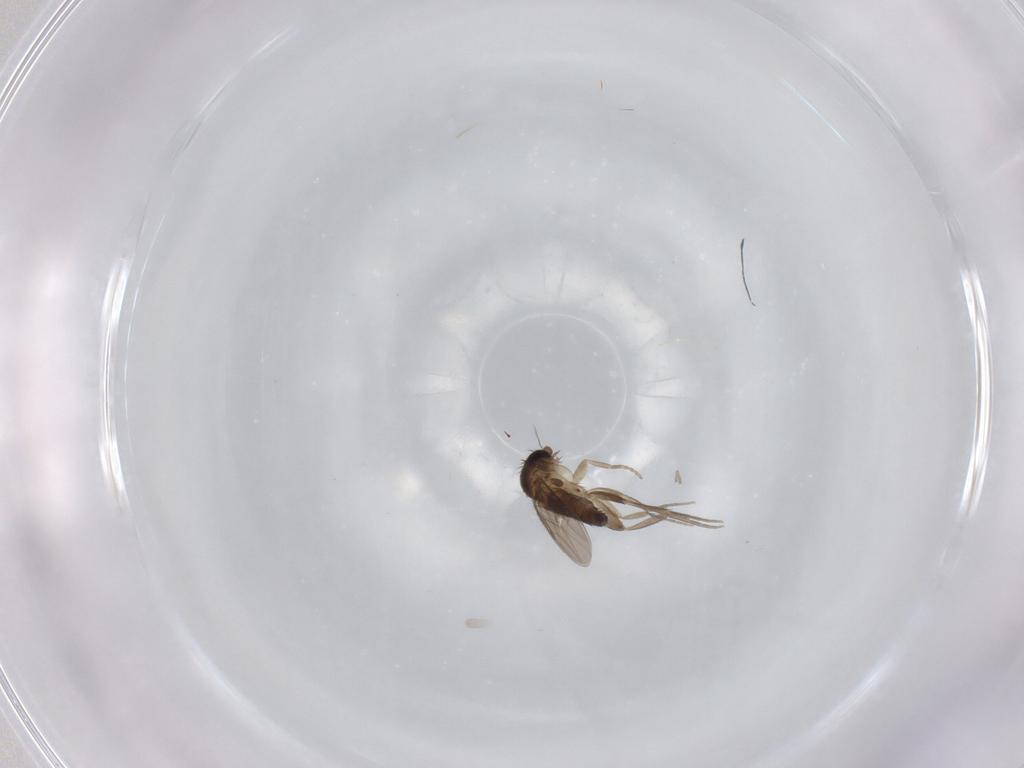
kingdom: Animalia
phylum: Arthropoda
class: Insecta
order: Diptera
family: Phoridae
